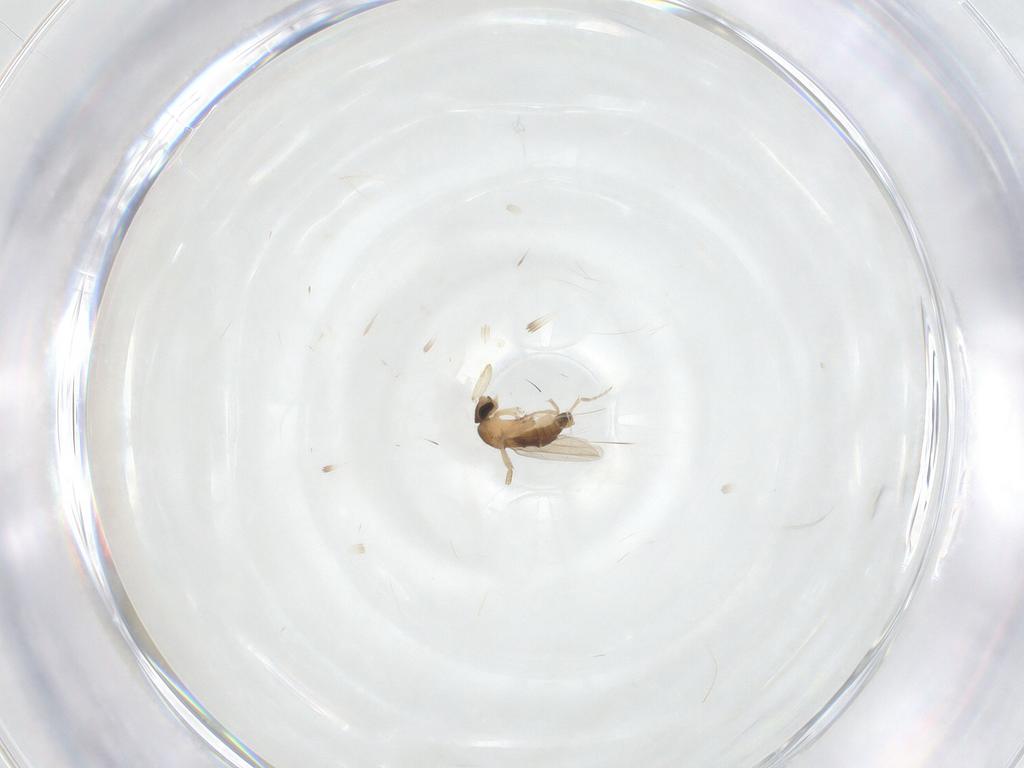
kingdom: Animalia
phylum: Arthropoda
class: Insecta
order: Diptera
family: Phoridae
